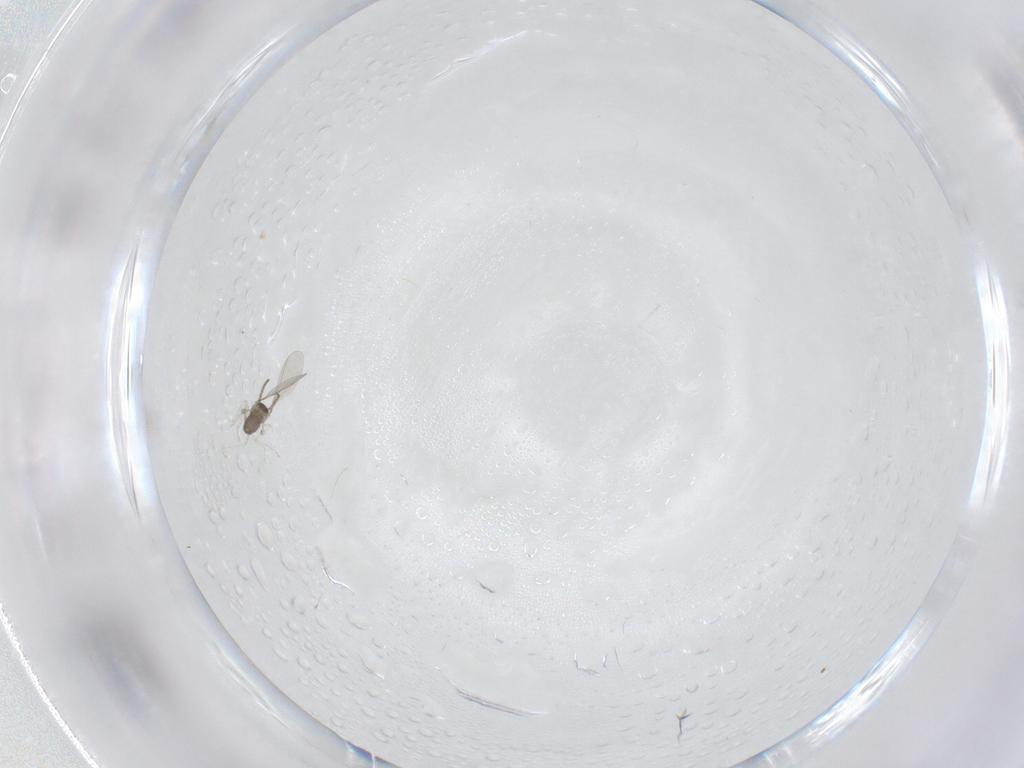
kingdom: Animalia
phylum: Arthropoda
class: Insecta
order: Diptera
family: Cecidomyiidae
